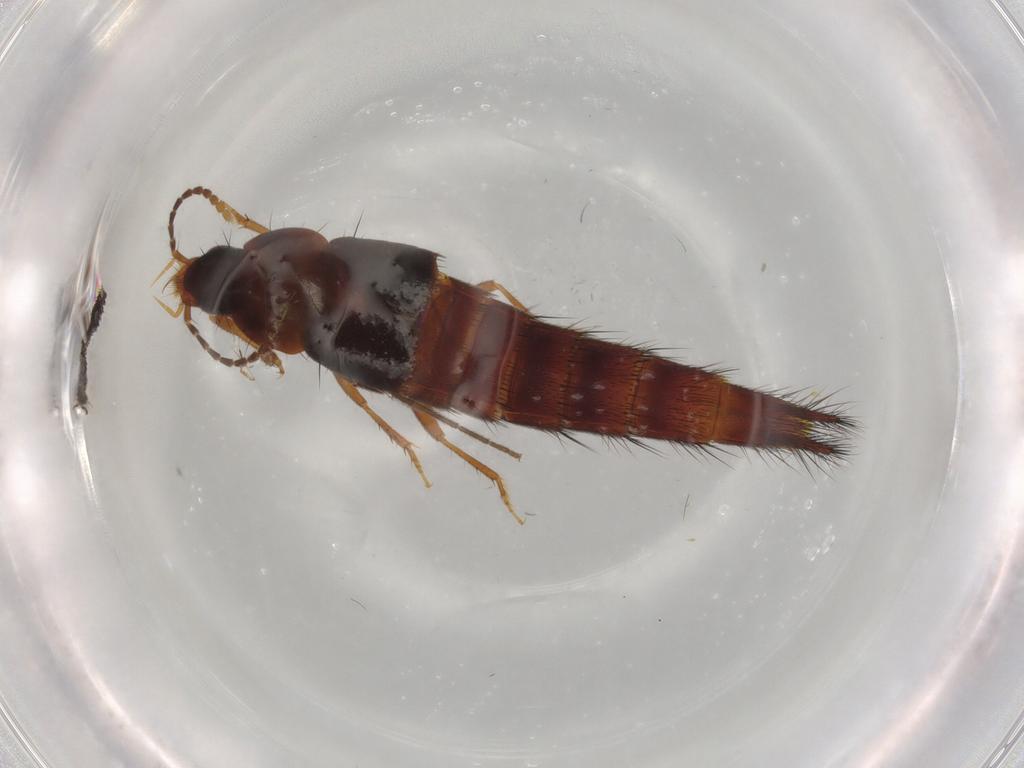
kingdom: Animalia
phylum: Arthropoda
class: Insecta
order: Coleoptera
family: Staphylinidae
